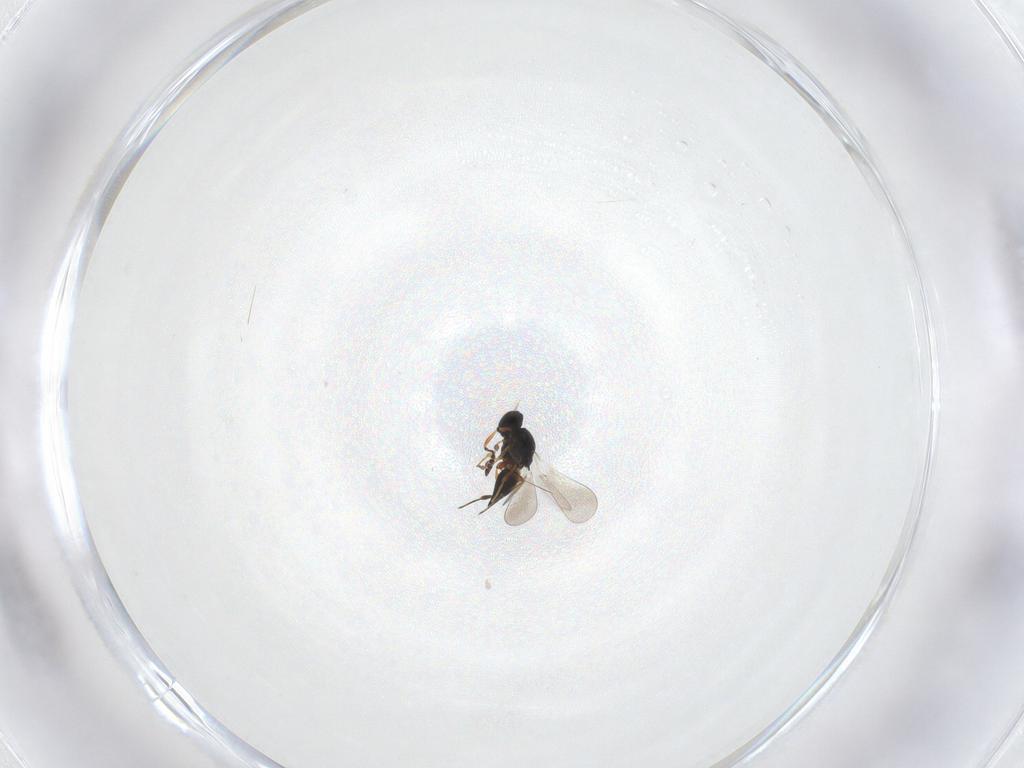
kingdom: Animalia
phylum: Arthropoda
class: Insecta
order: Hymenoptera
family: Platygastridae
